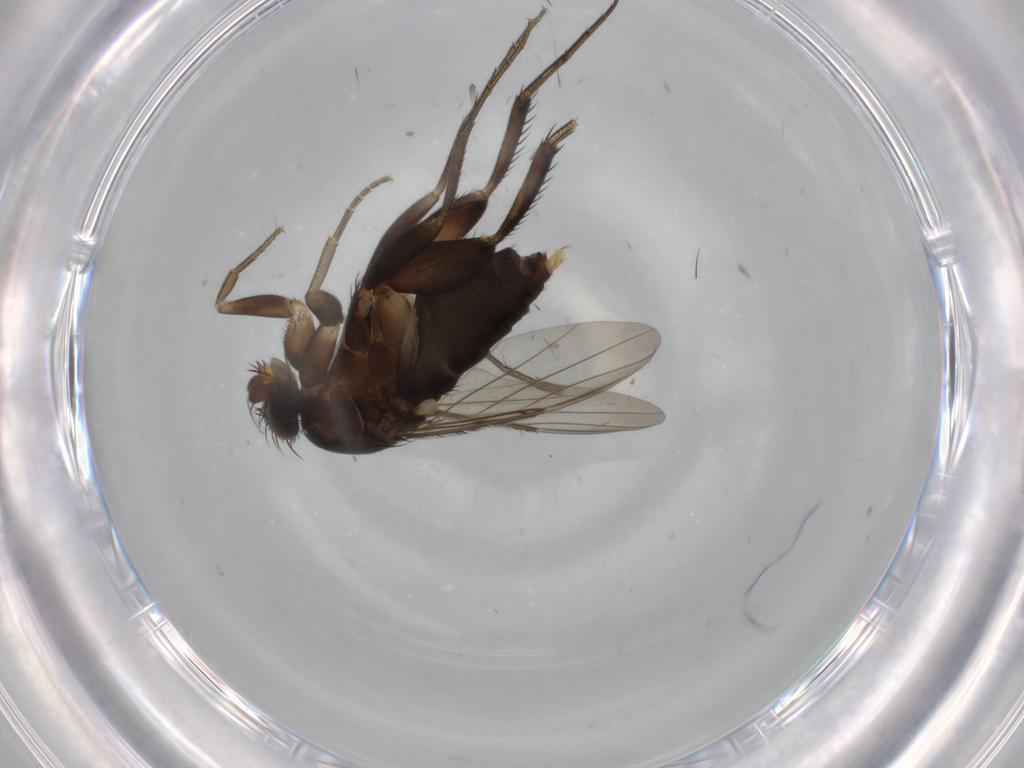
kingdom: Animalia
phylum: Arthropoda
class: Insecta
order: Diptera
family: Phoridae
